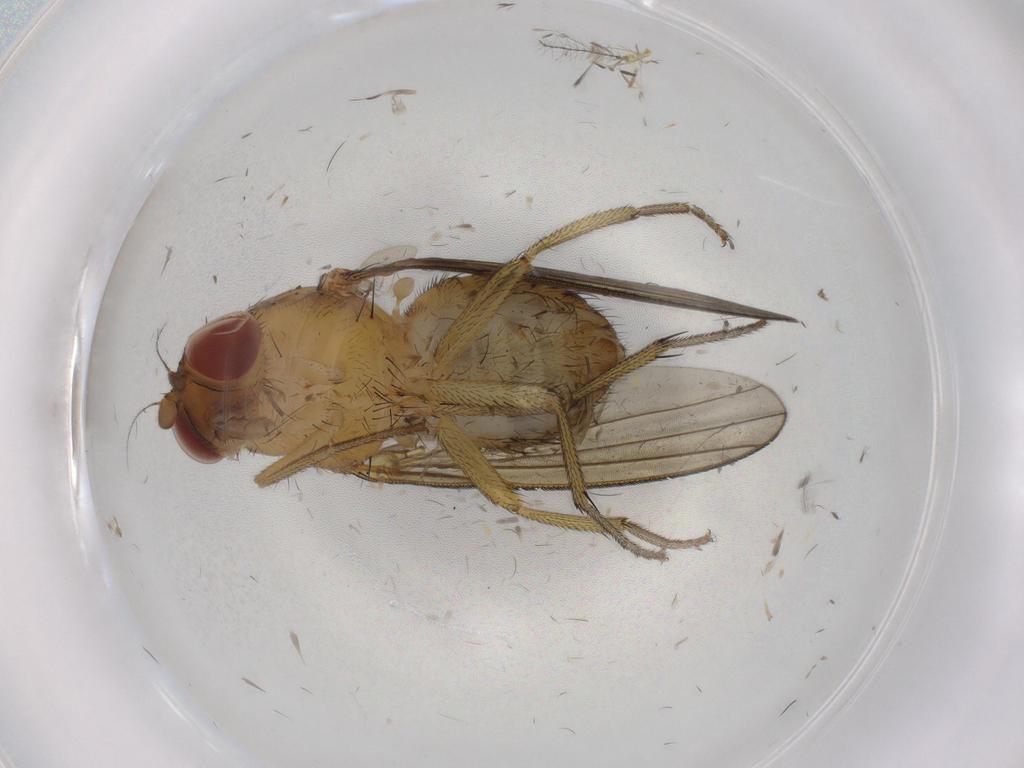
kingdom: Animalia
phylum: Arthropoda
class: Insecta
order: Diptera
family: Cecidomyiidae
